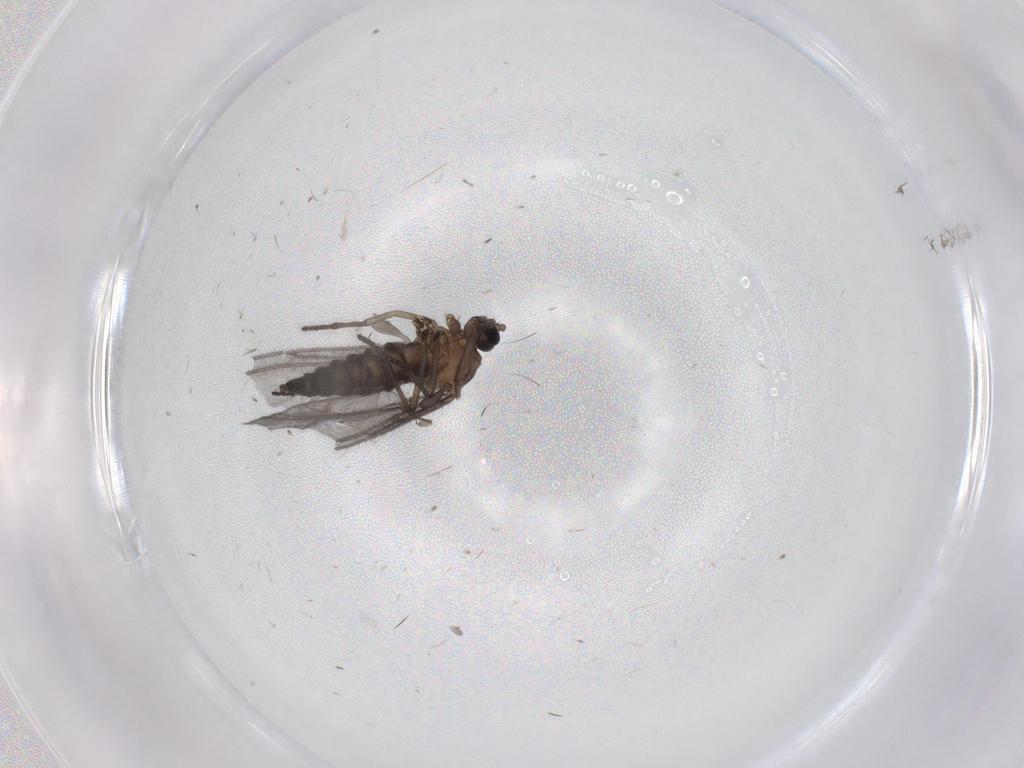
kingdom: Animalia
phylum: Arthropoda
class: Insecta
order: Diptera
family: Sciaridae
